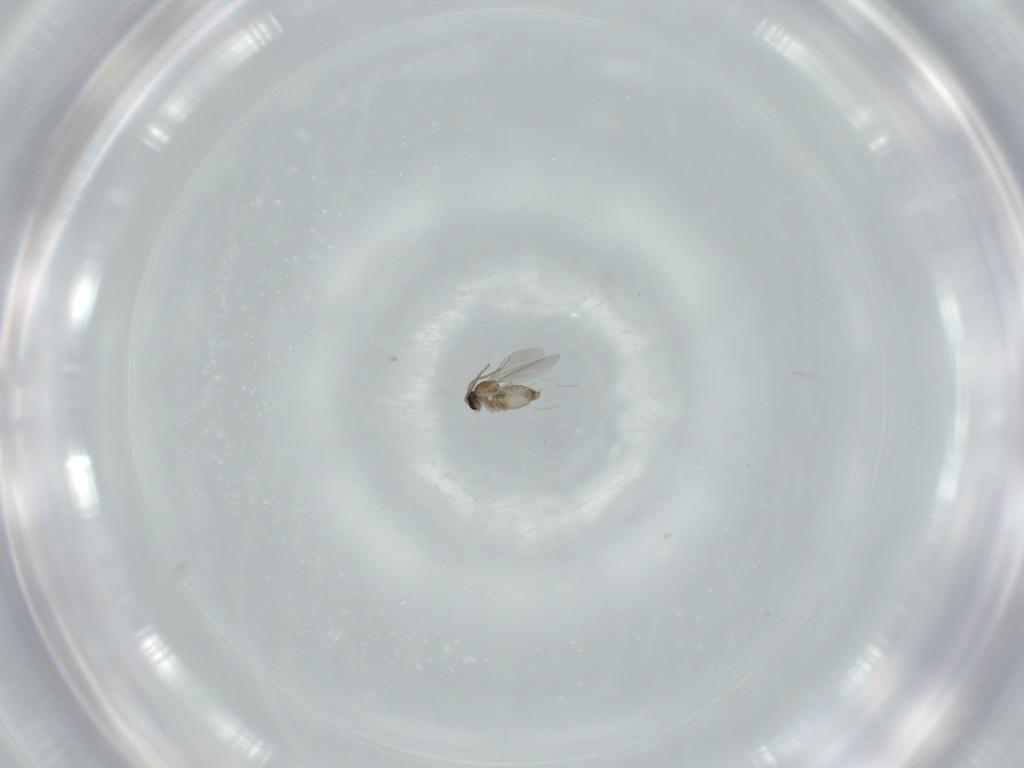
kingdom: Animalia
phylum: Arthropoda
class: Insecta
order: Diptera
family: Cecidomyiidae
